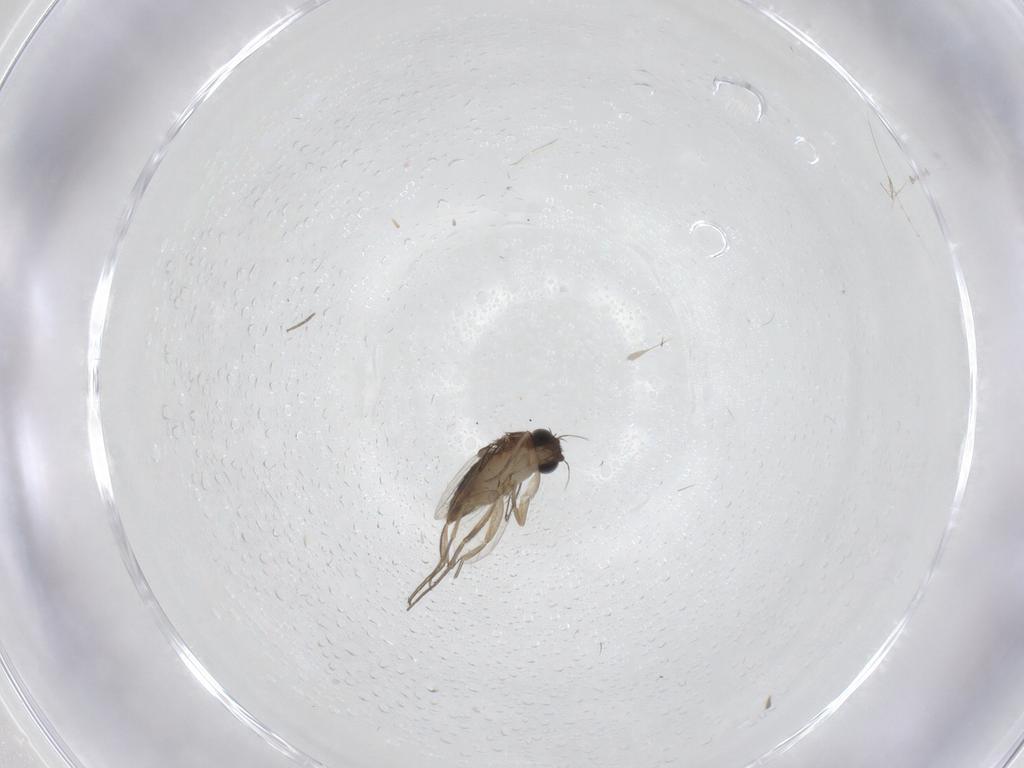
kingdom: Animalia
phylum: Arthropoda
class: Insecta
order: Diptera
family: Phoridae
